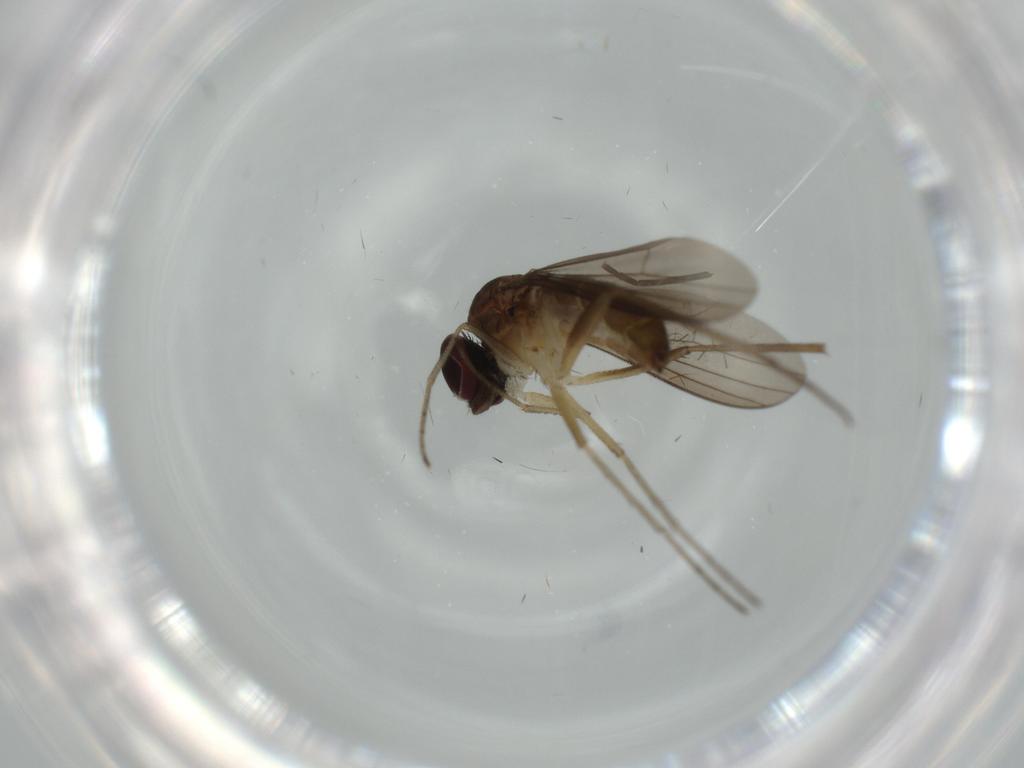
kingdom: Animalia
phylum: Arthropoda
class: Insecta
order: Diptera
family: Dolichopodidae
